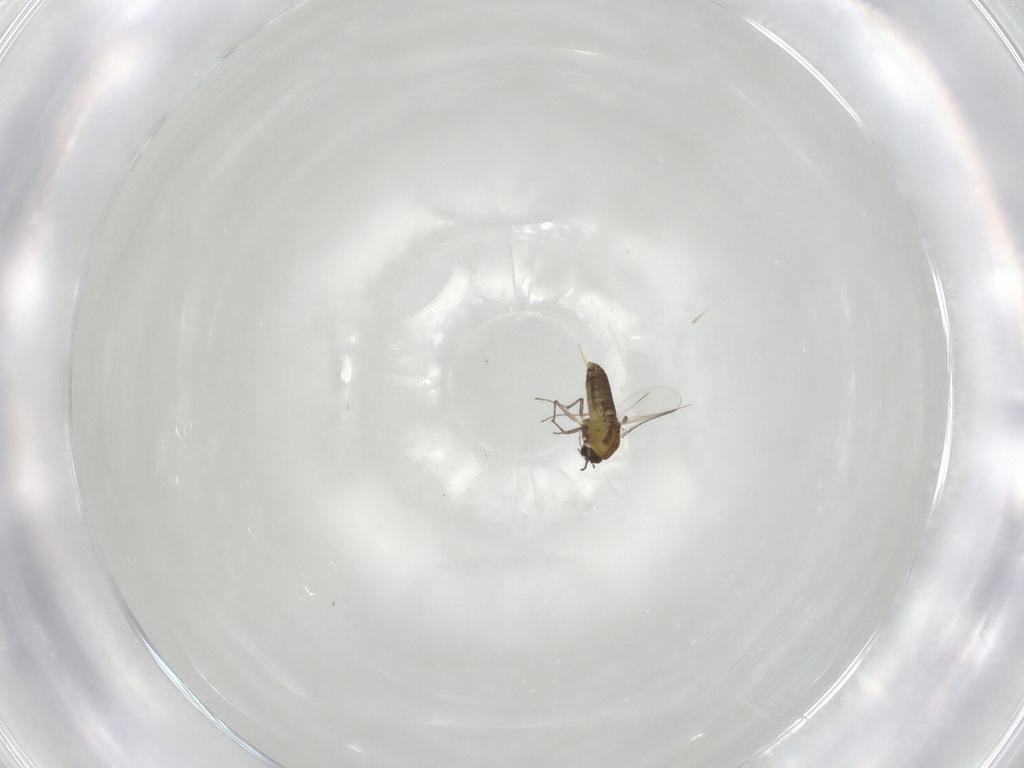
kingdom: Animalia
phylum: Arthropoda
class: Insecta
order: Diptera
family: Chironomidae
